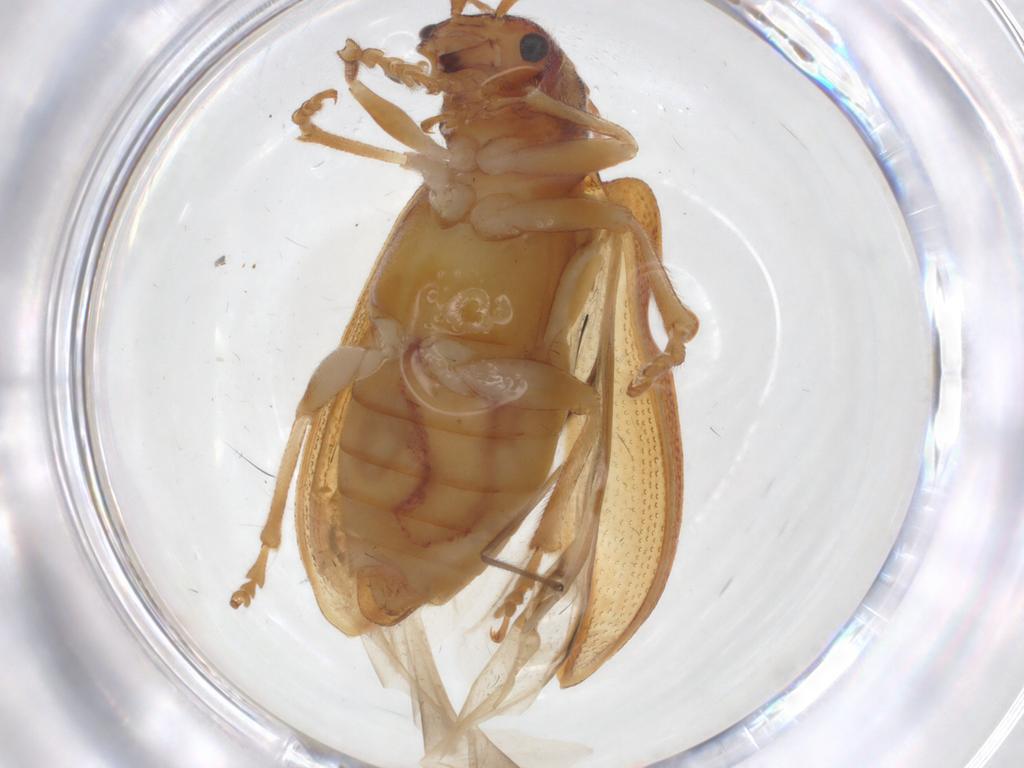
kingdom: Animalia
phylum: Arthropoda
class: Insecta
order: Coleoptera
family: Chrysomelidae
